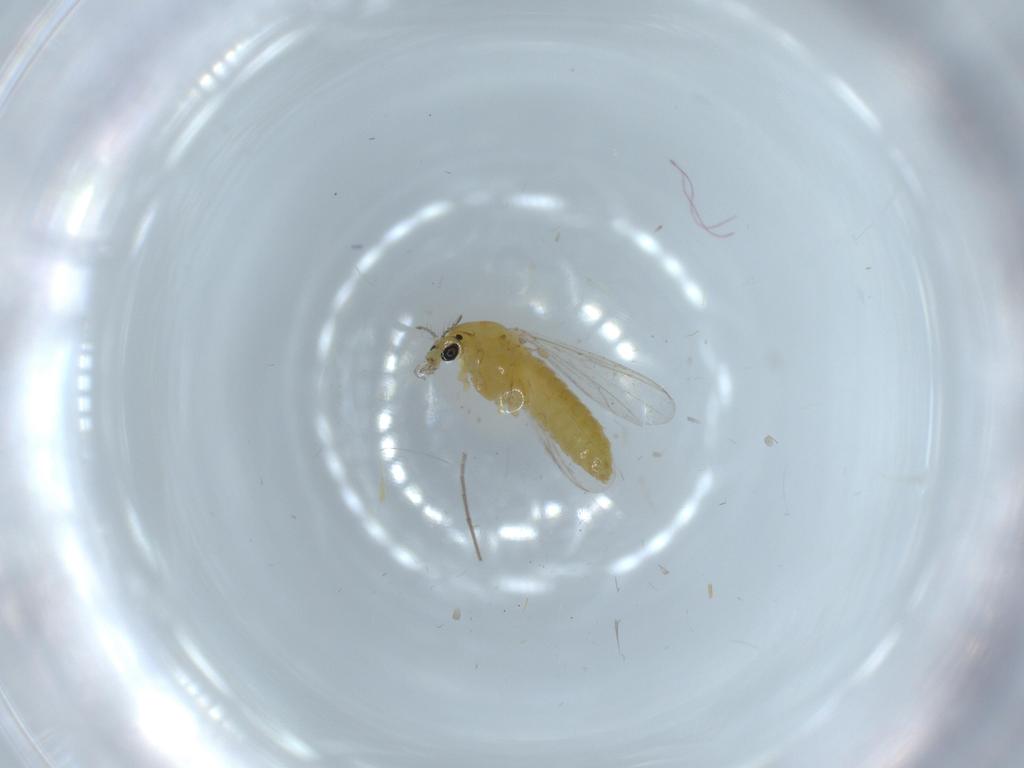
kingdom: Animalia
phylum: Arthropoda
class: Insecta
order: Diptera
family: Chironomidae
